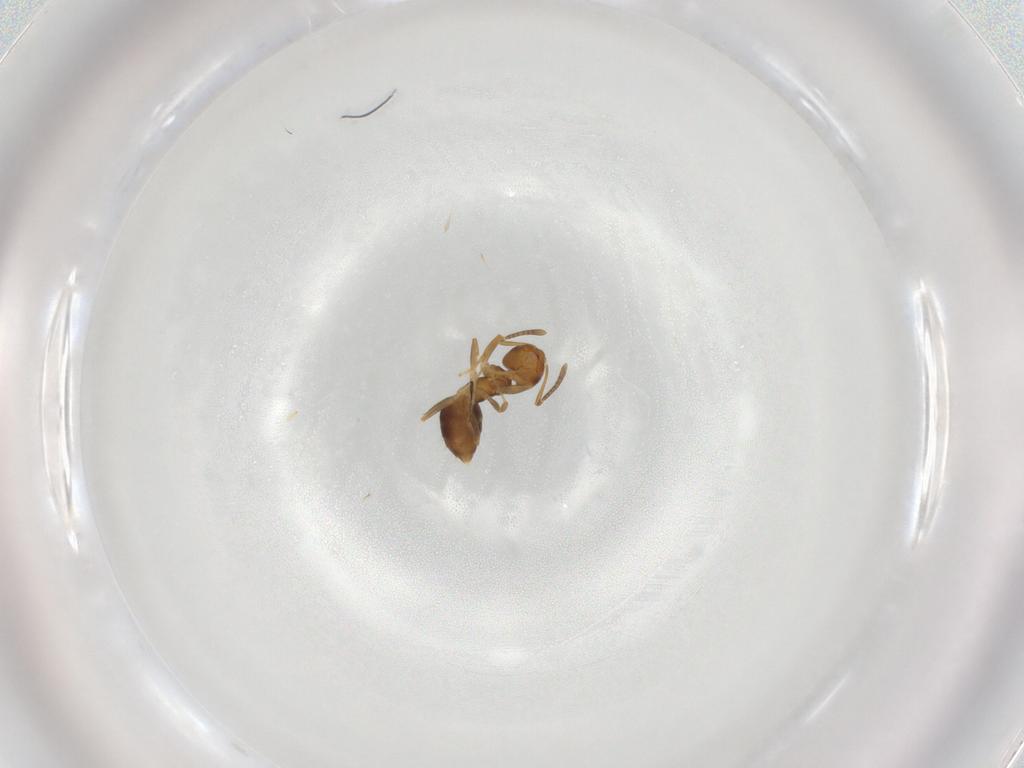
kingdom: Animalia
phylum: Arthropoda
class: Insecta
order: Hymenoptera
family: Formicidae
